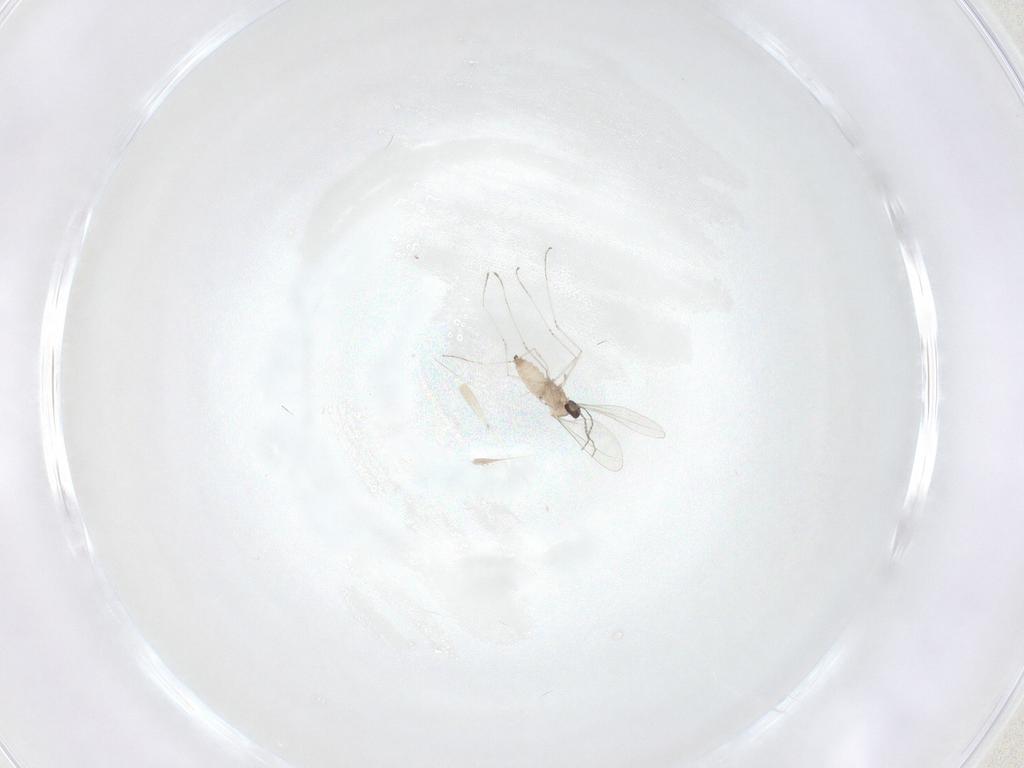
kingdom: Animalia
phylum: Arthropoda
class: Insecta
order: Diptera
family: Cecidomyiidae
